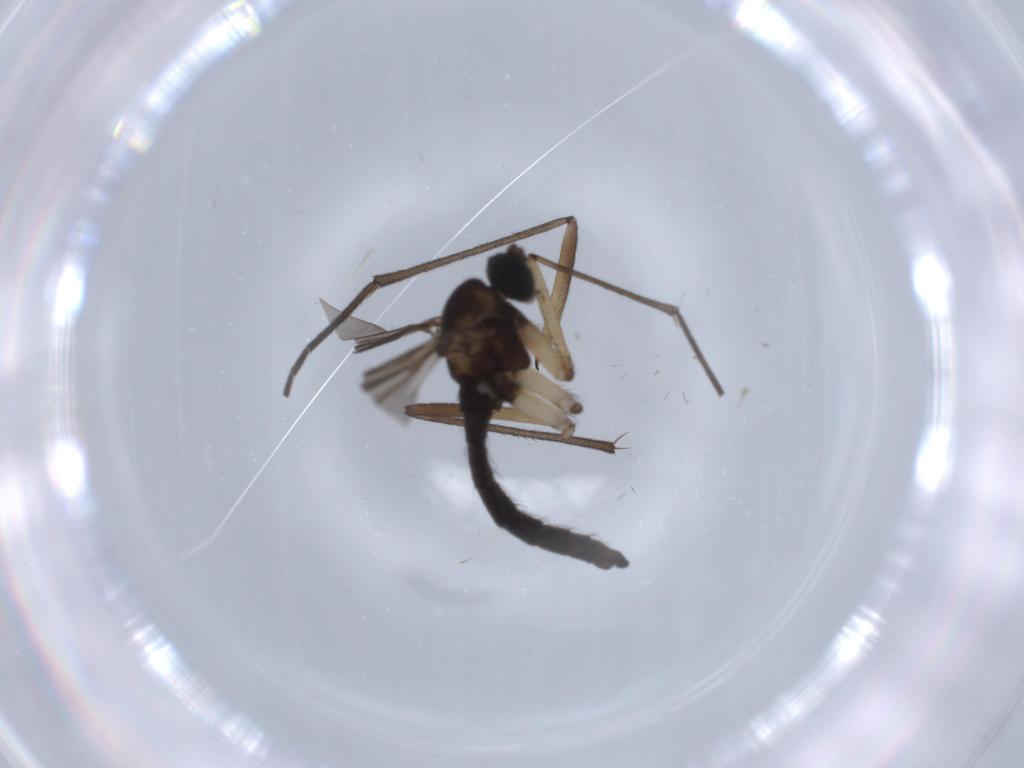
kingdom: Animalia
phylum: Arthropoda
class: Insecta
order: Diptera
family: Sciaridae
